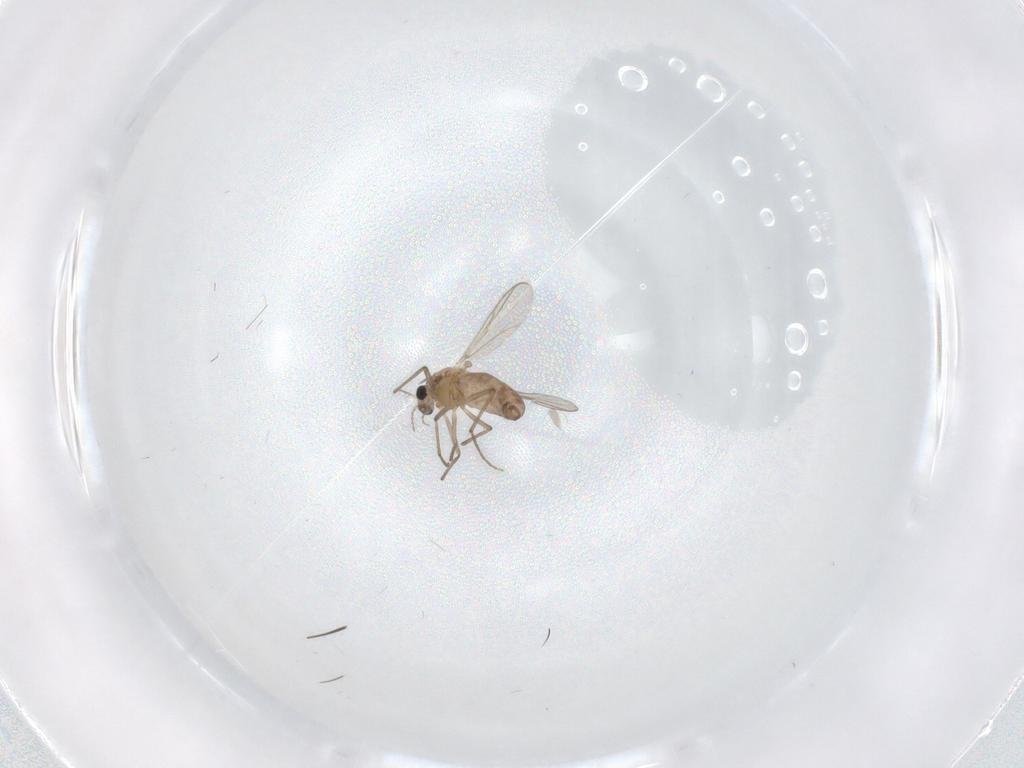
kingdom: Animalia
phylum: Arthropoda
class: Insecta
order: Diptera
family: Chironomidae
